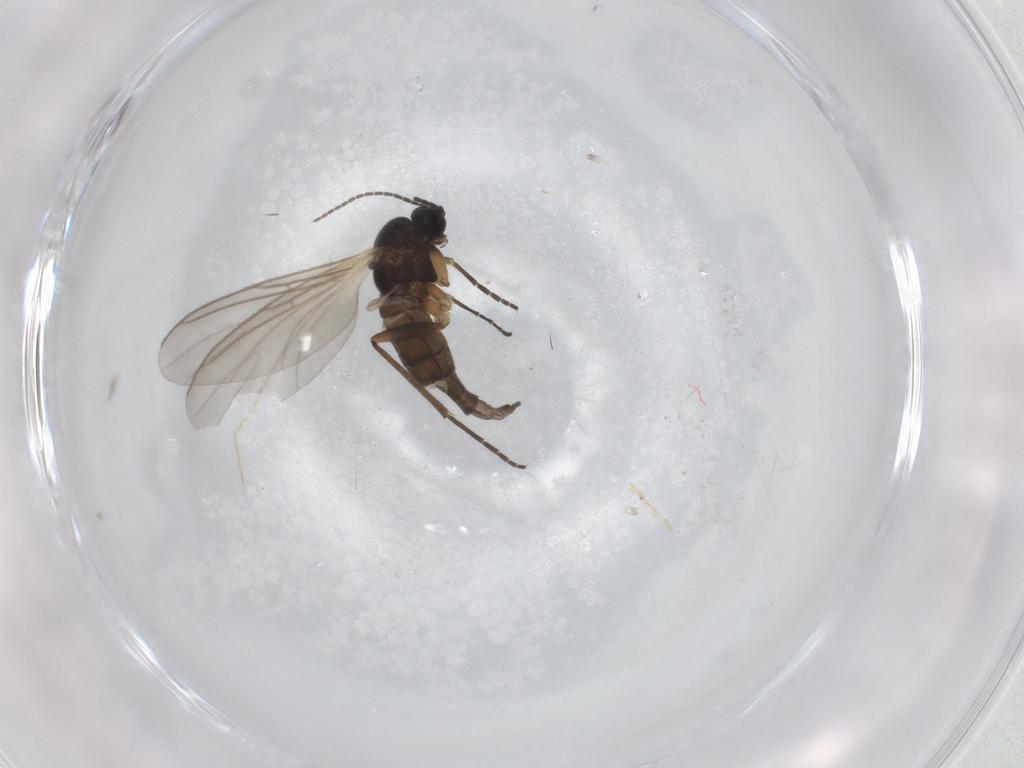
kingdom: Animalia
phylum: Arthropoda
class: Insecta
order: Diptera
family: Sciaridae
